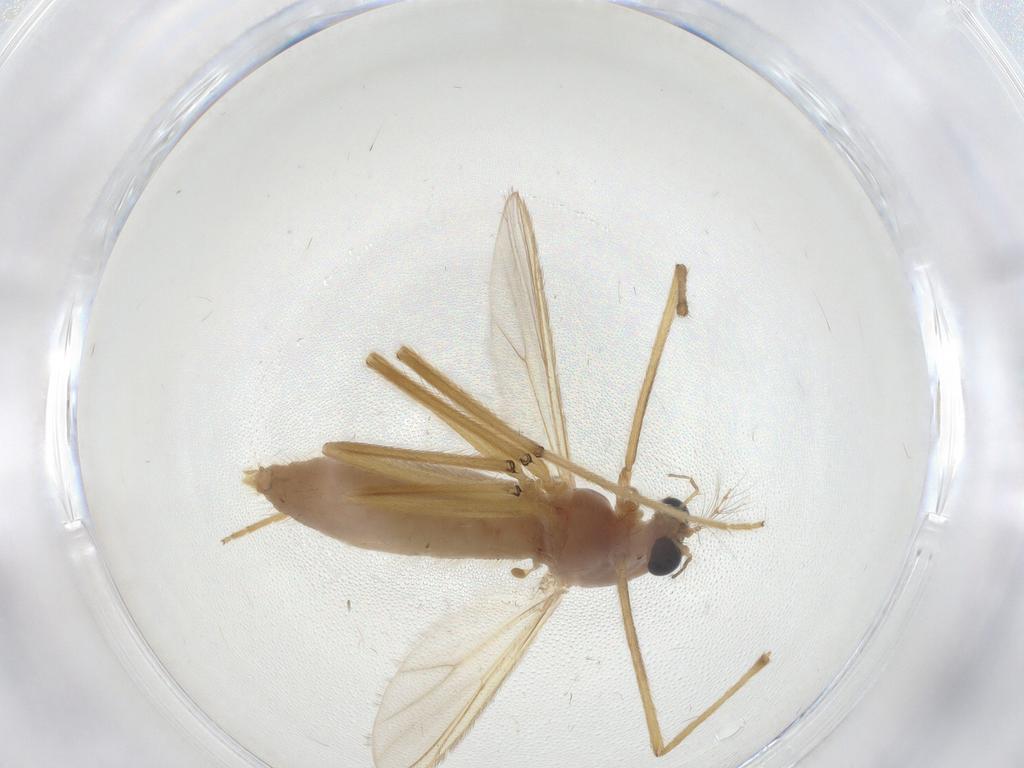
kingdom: Animalia
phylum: Arthropoda
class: Insecta
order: Diptera
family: Chironomidae
